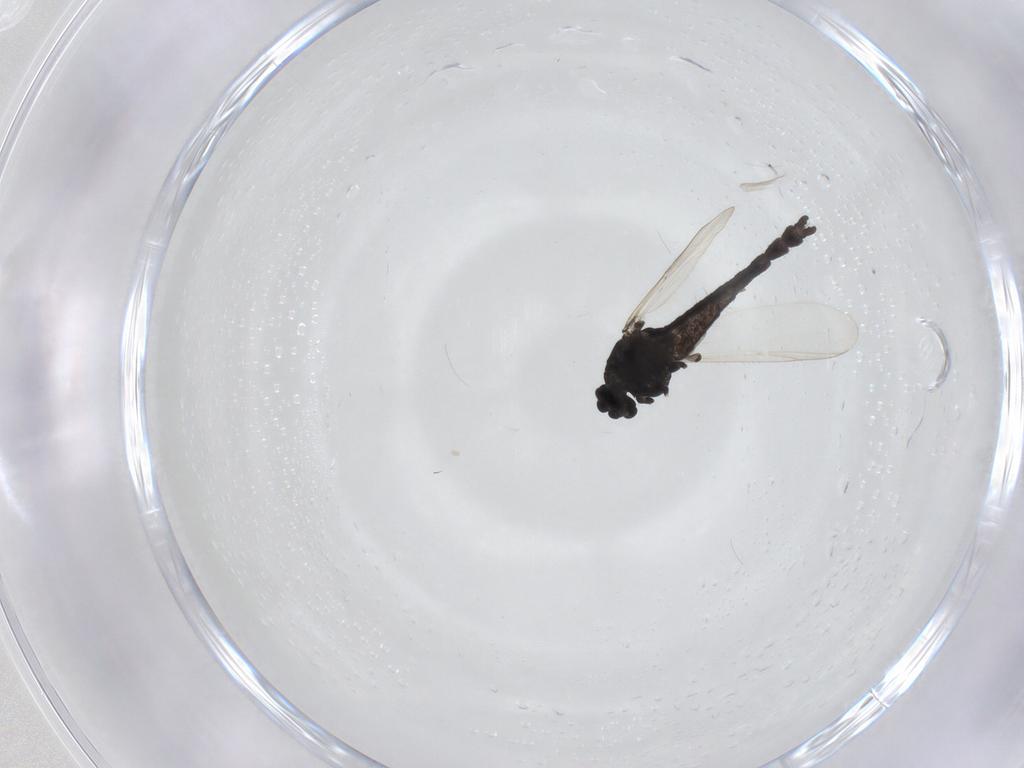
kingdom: Animalia
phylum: Arthropoda
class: Insecta
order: Diptera
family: Chironomidae
